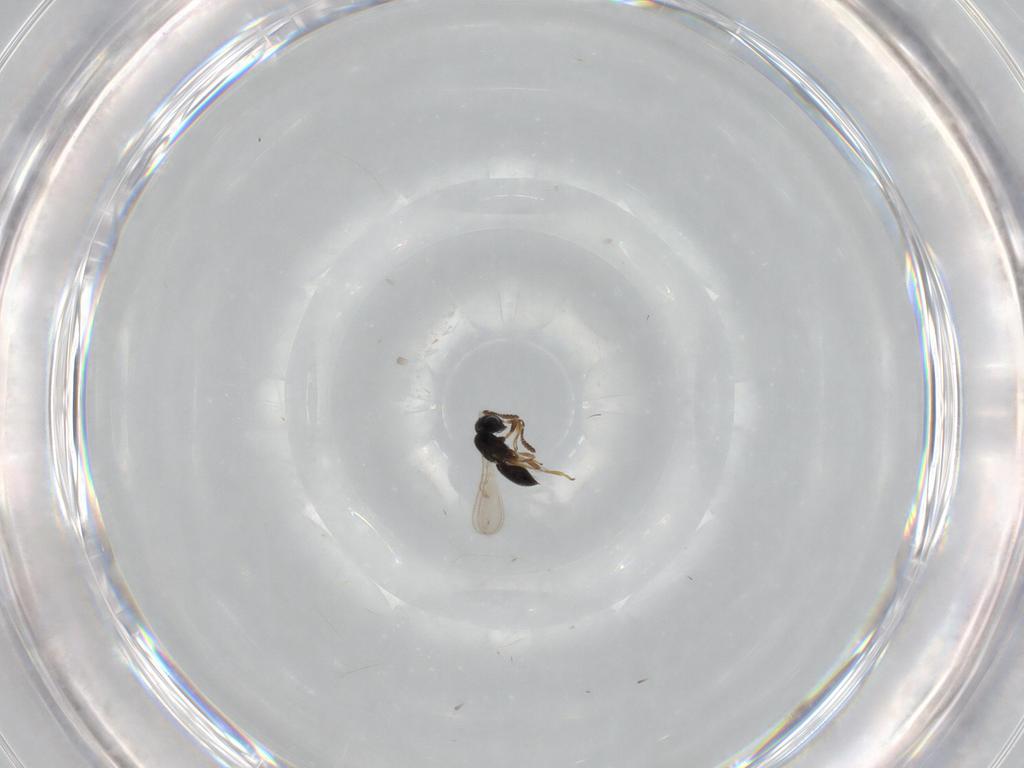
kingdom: Animalia
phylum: Arthropoda
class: Insecta
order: Hymenoptera
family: Scelionidae
